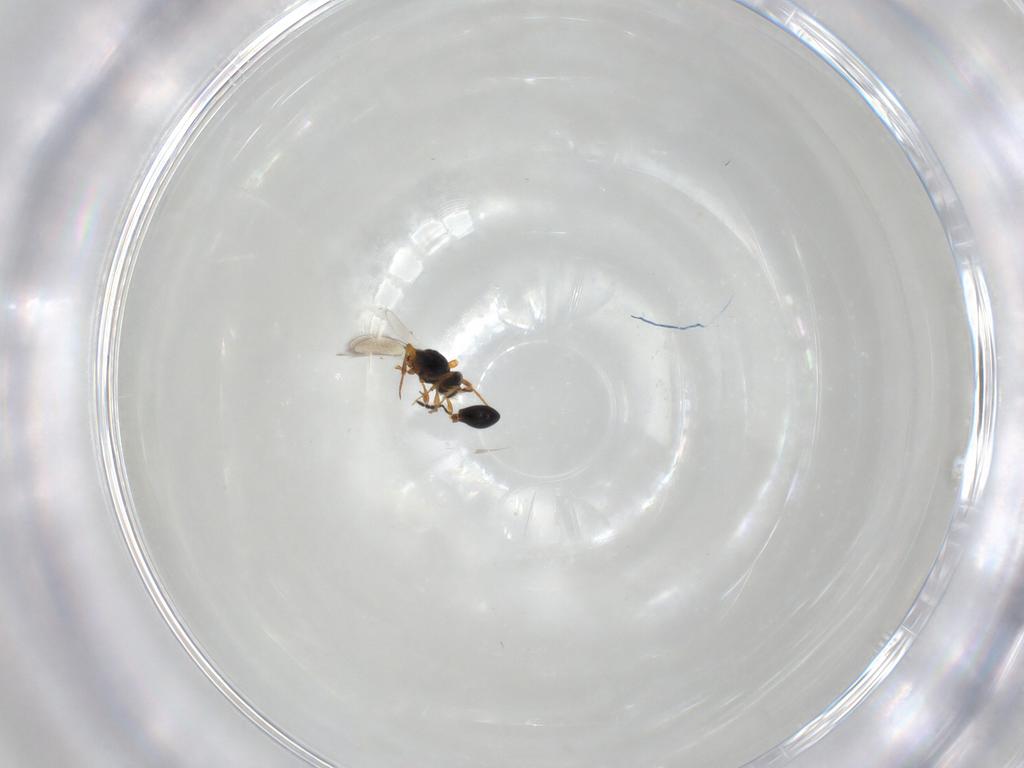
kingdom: Animalia
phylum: Arthropoda
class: Insecta
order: Hymenoptera
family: Platygastridae
